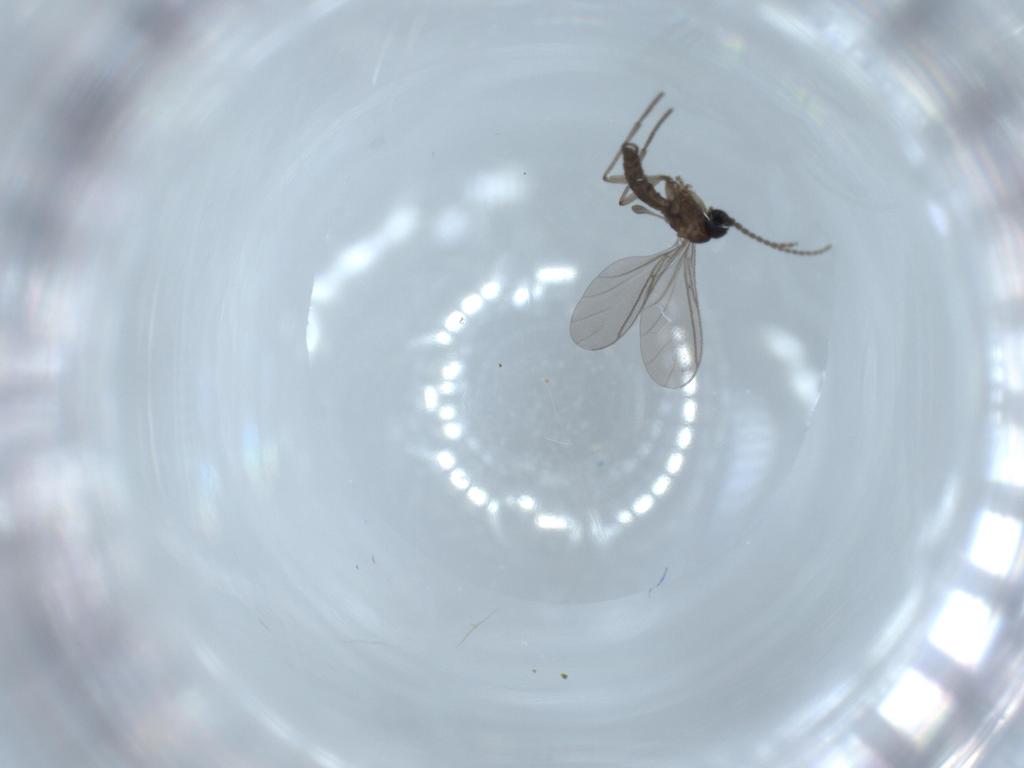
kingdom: Animalia
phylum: Arthropoda
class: Insecta
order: Diptera
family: Sciaridae
